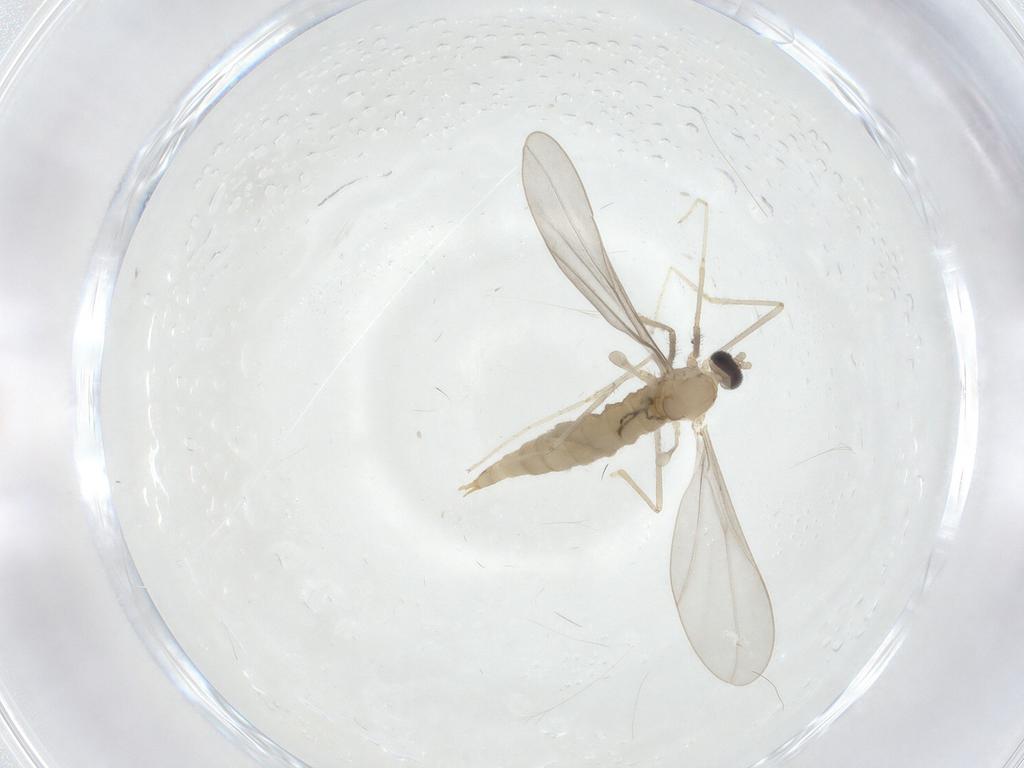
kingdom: Animalia
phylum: Arthropoda
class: Insecta
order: Diptera
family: Cecidomyiidae
